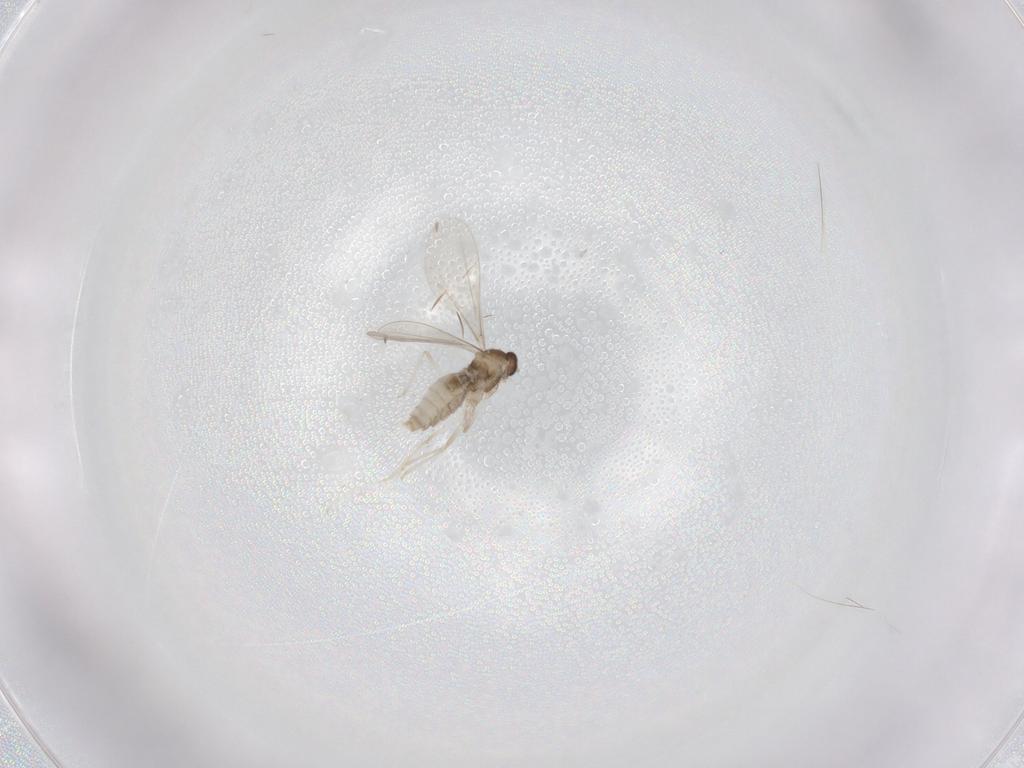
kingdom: Animalia
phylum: Arthropoda
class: Insecta
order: Diptera
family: Cecidomyiidae
